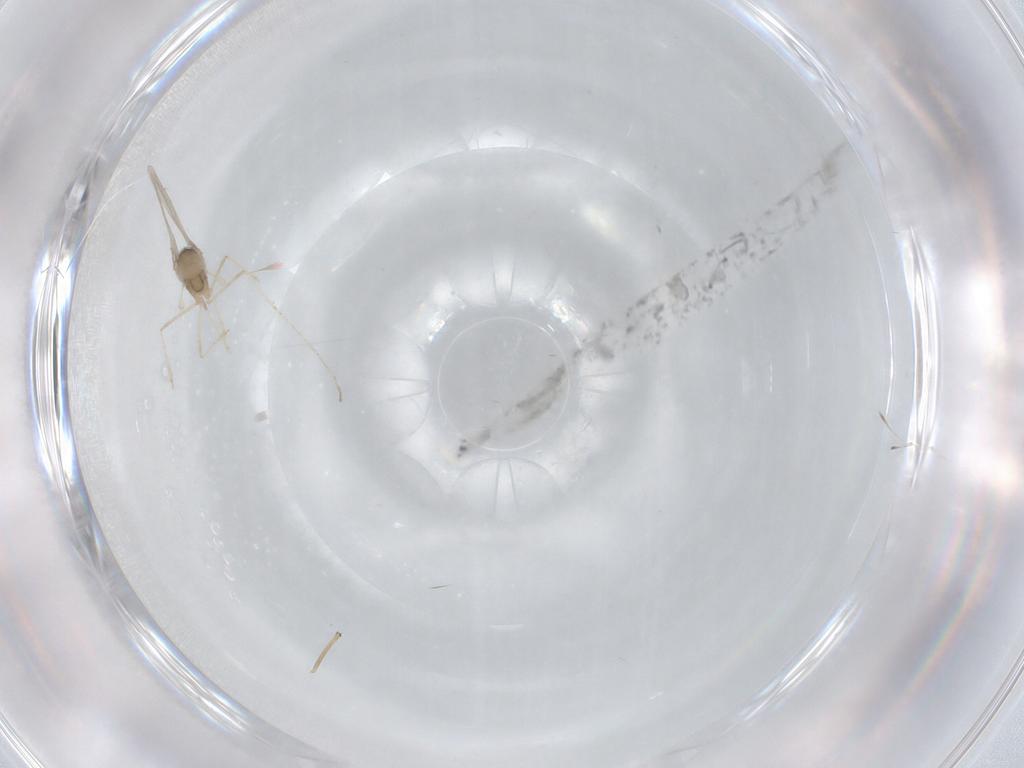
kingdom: Animalia
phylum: Arthropoda
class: Insecta
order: Diptera
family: Cecidomyiidae
